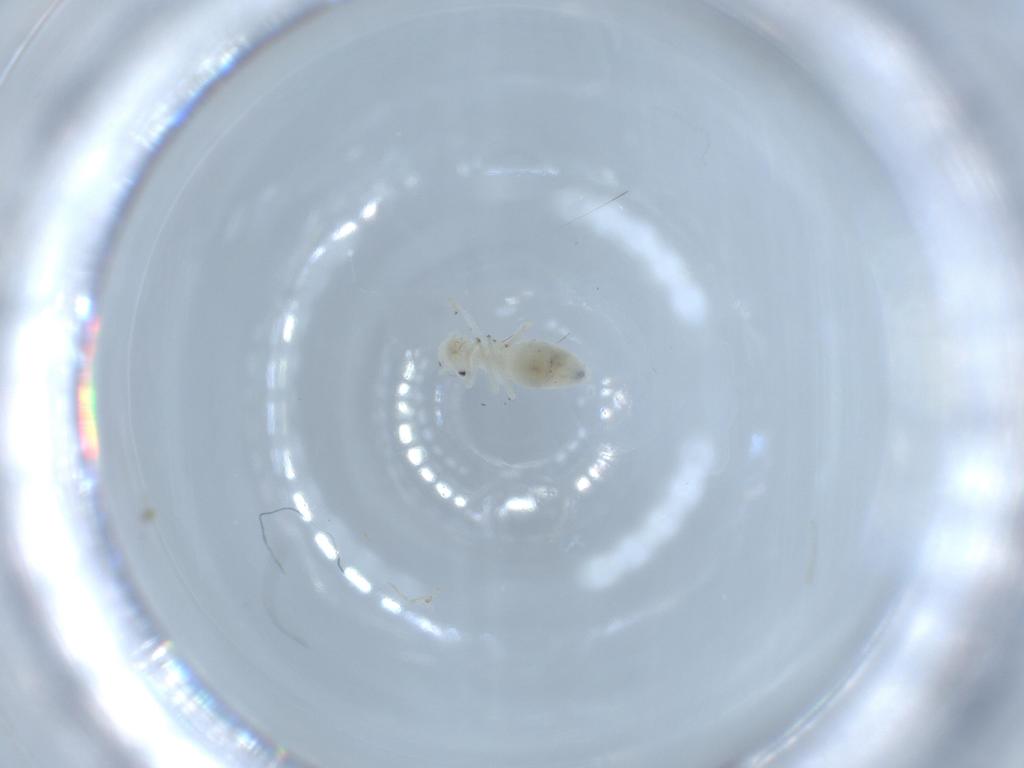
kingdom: Animalia
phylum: Arthropoda
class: Insecta
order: Psocodea
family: Caeciliusidae
